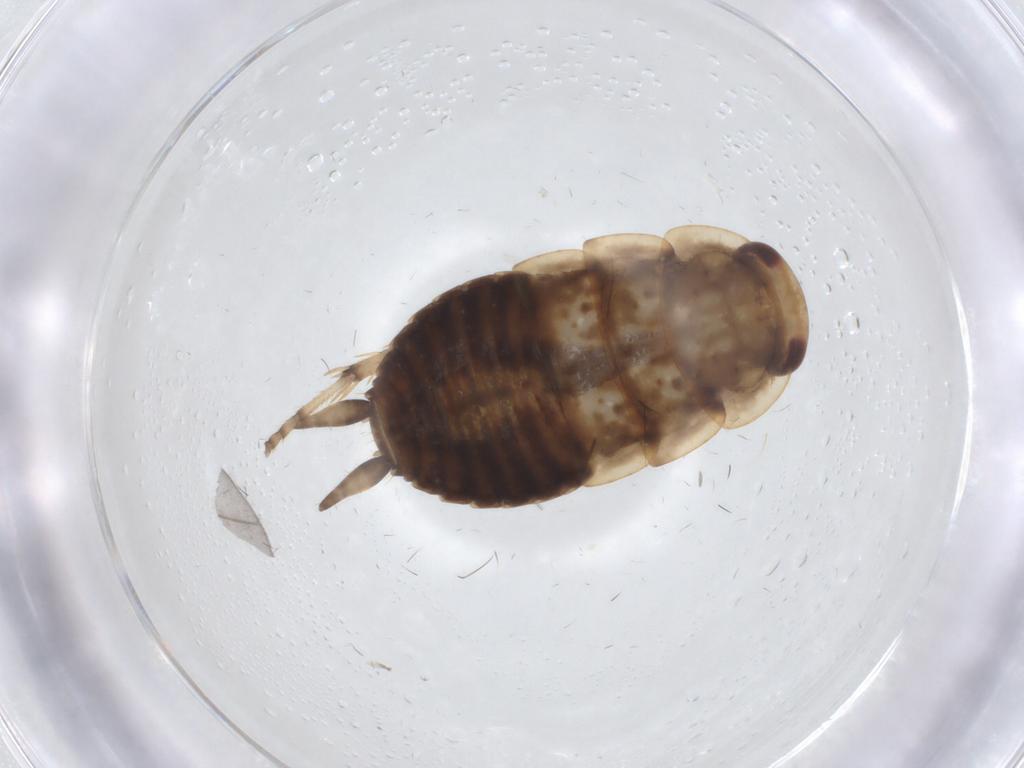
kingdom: Animalia
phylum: Arthropoda
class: Insecta
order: Blattodea
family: Ectobiidae
